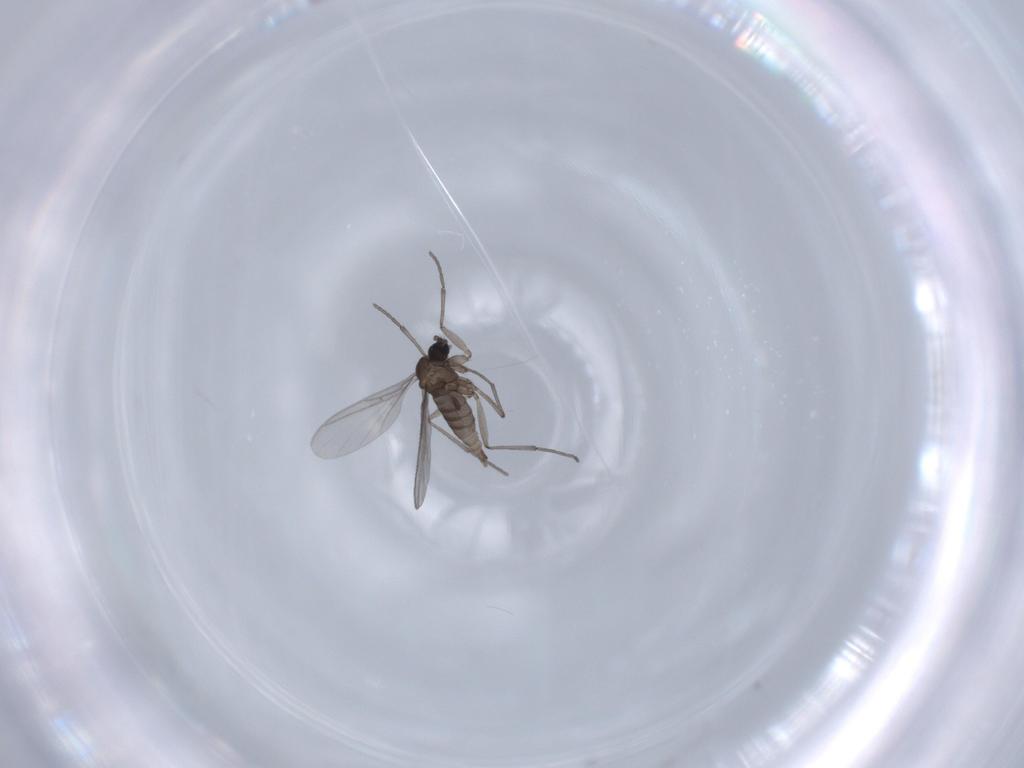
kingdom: Animalia
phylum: Arthropoda
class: Insecta
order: Diptera
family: Sciaridae
